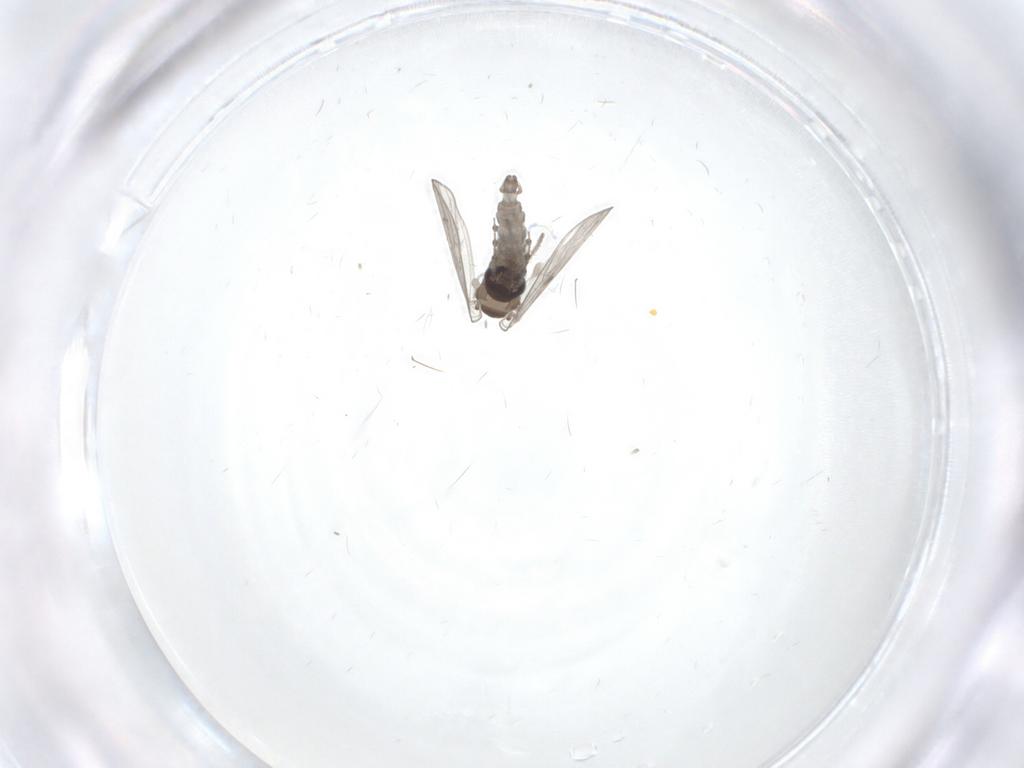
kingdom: Animalia
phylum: Arthropoda
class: Insecta
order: Diptera
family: Psychodidae
